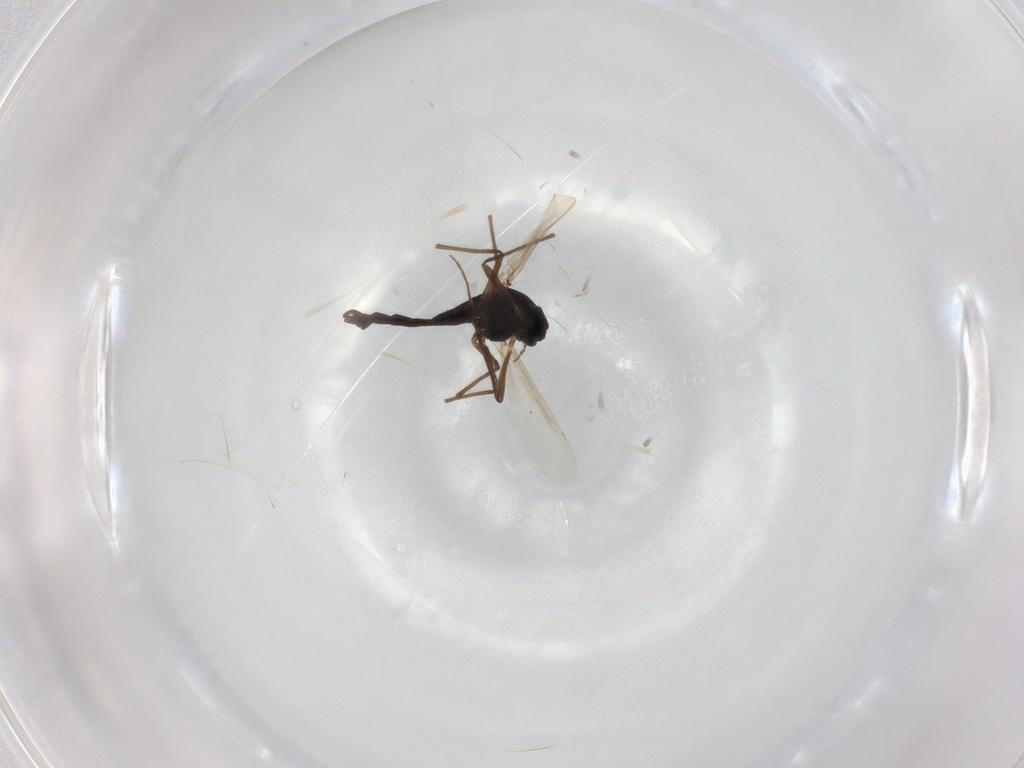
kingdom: Animalia
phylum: Arthropoda
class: Insecta
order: Diptera
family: Chironomidae
